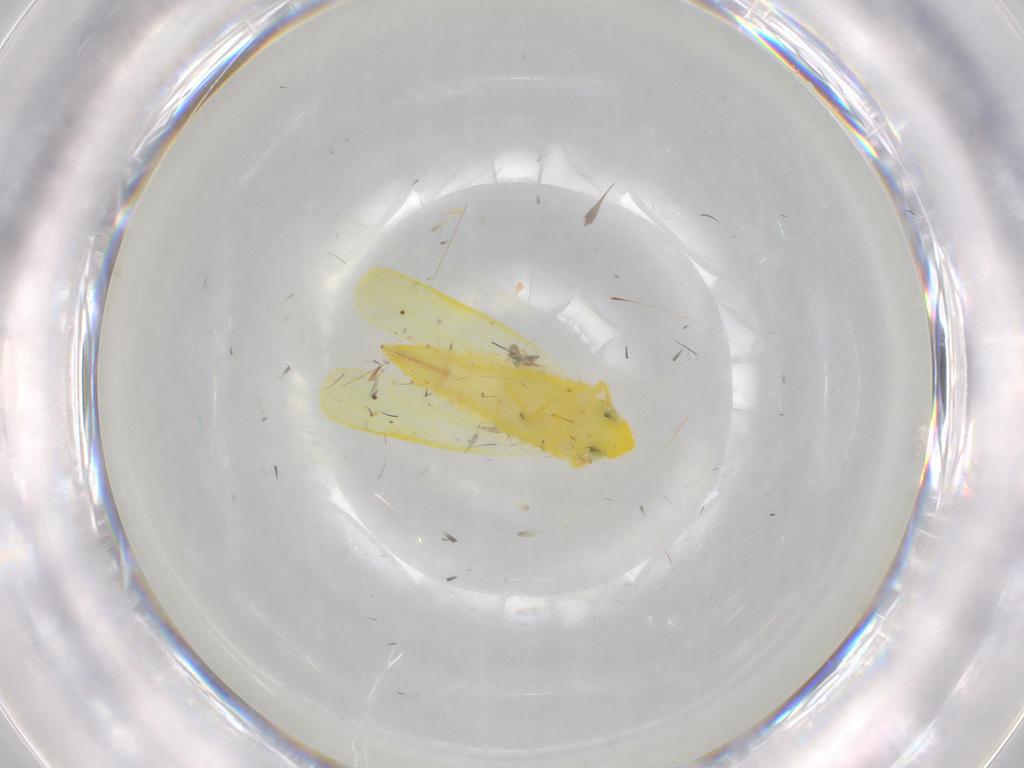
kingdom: Animalia
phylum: Arthropoda
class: Insecta
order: Hemiptera
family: Cicadellidae
